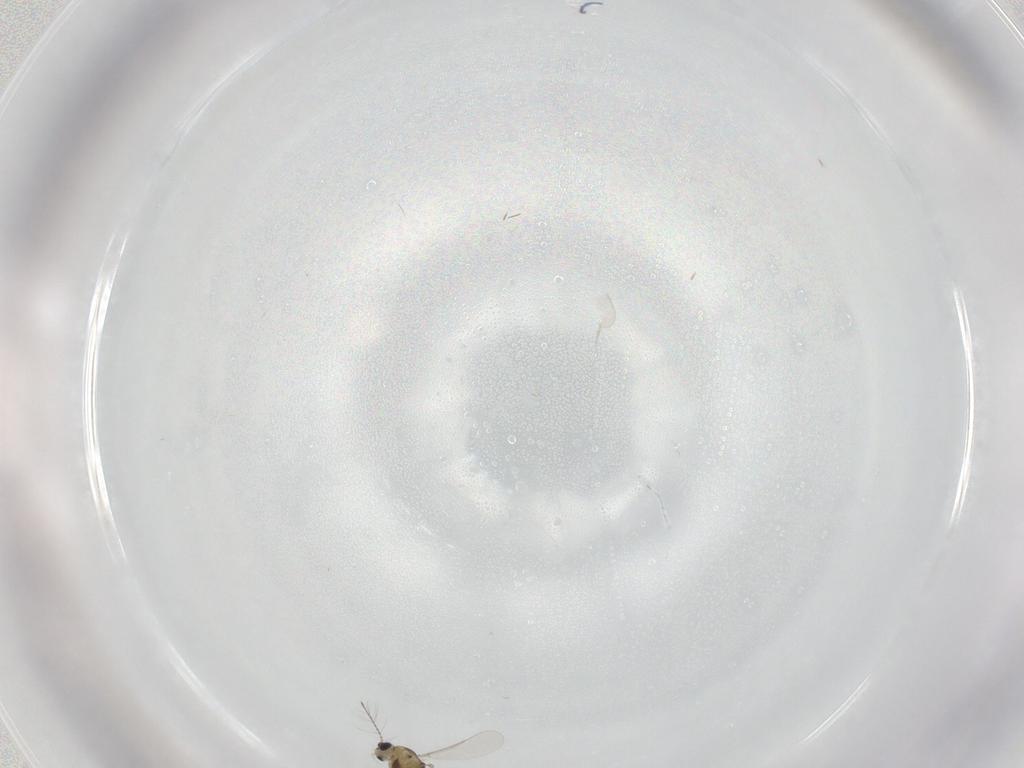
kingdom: Animalia
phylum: Arthropoda
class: Insecta
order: Diptera
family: Chironomidae
